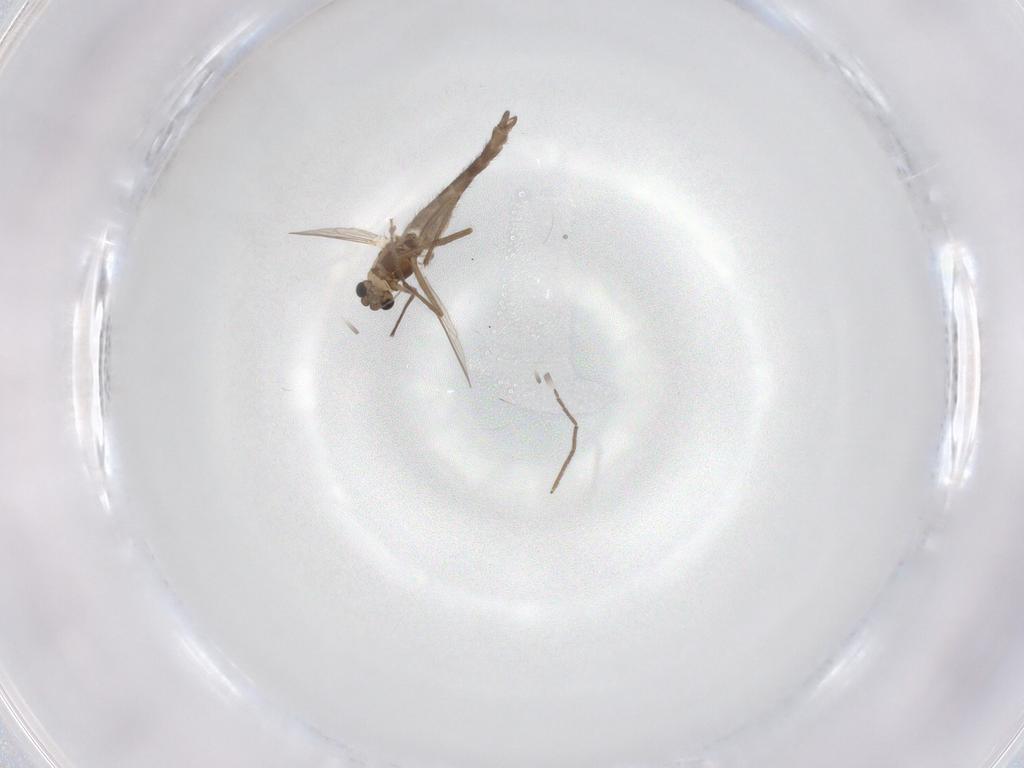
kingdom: Animalia
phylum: Arthropoda
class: Insecta
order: Diptera
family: Chironomidae
